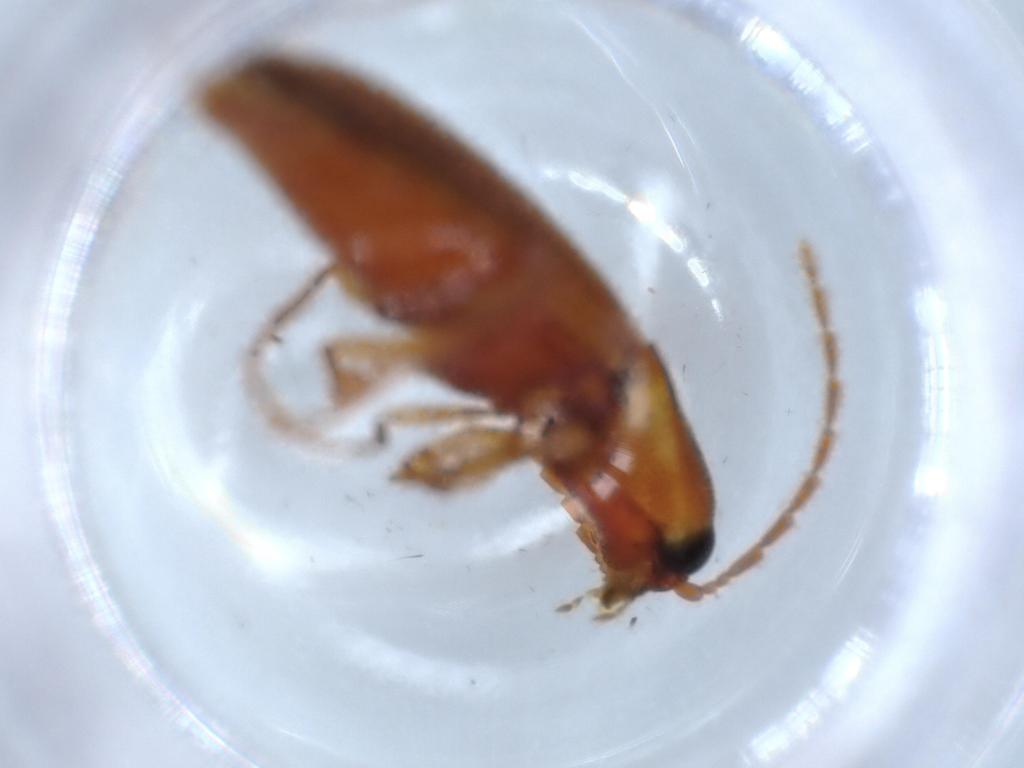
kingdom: Animalia
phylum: Arthropoda
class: Insecta
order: Coleoptera
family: Elateridae
